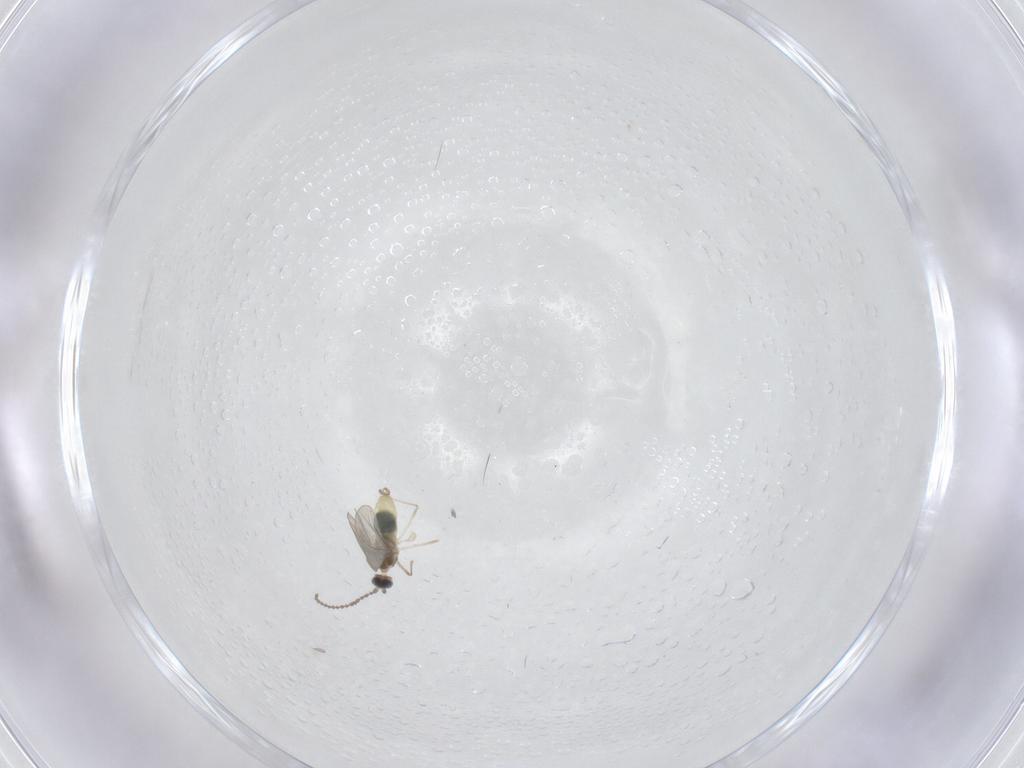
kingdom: Animalia
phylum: Arthropoda
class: Insecta
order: Diptera
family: Cecidomyiidae
